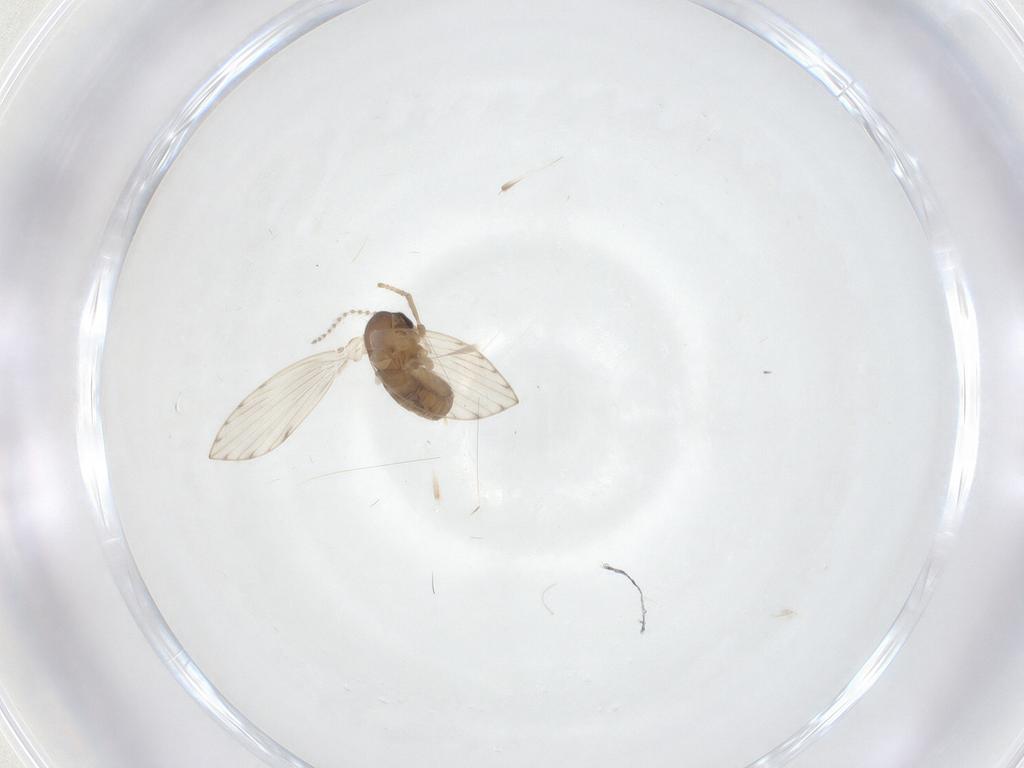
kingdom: Animalia
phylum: Arthropoda
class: Insecta
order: Diptera
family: Psychodidae
